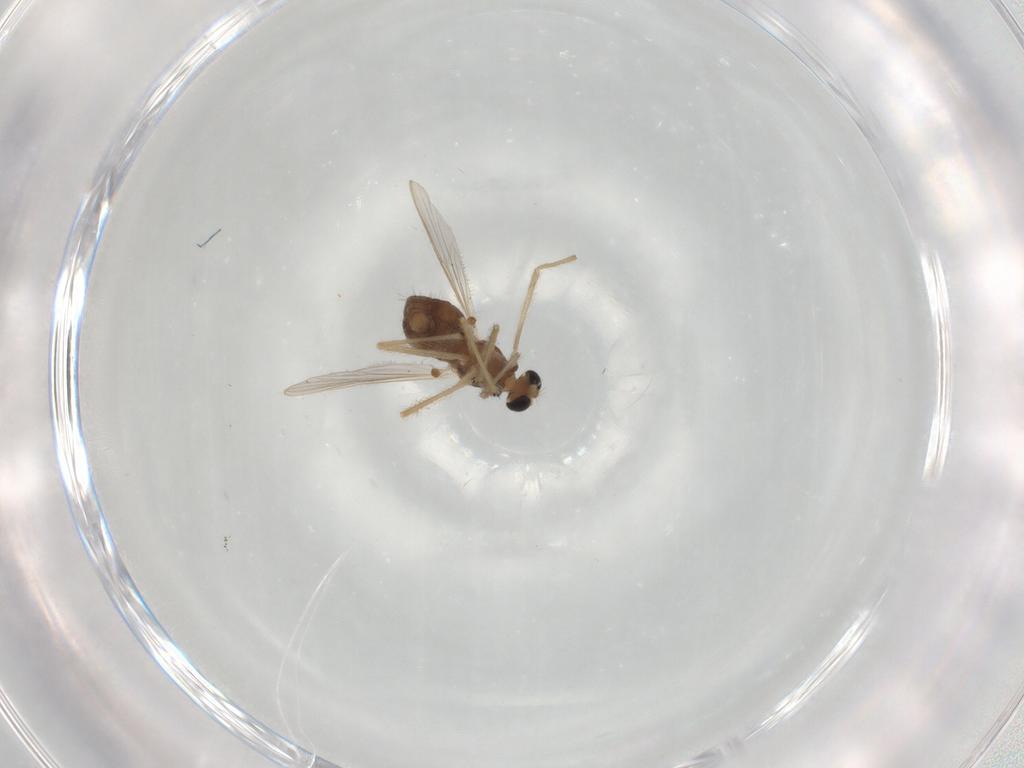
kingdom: Animalia
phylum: Arthropoda
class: Insecta
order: Diptera
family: Chironomidae
